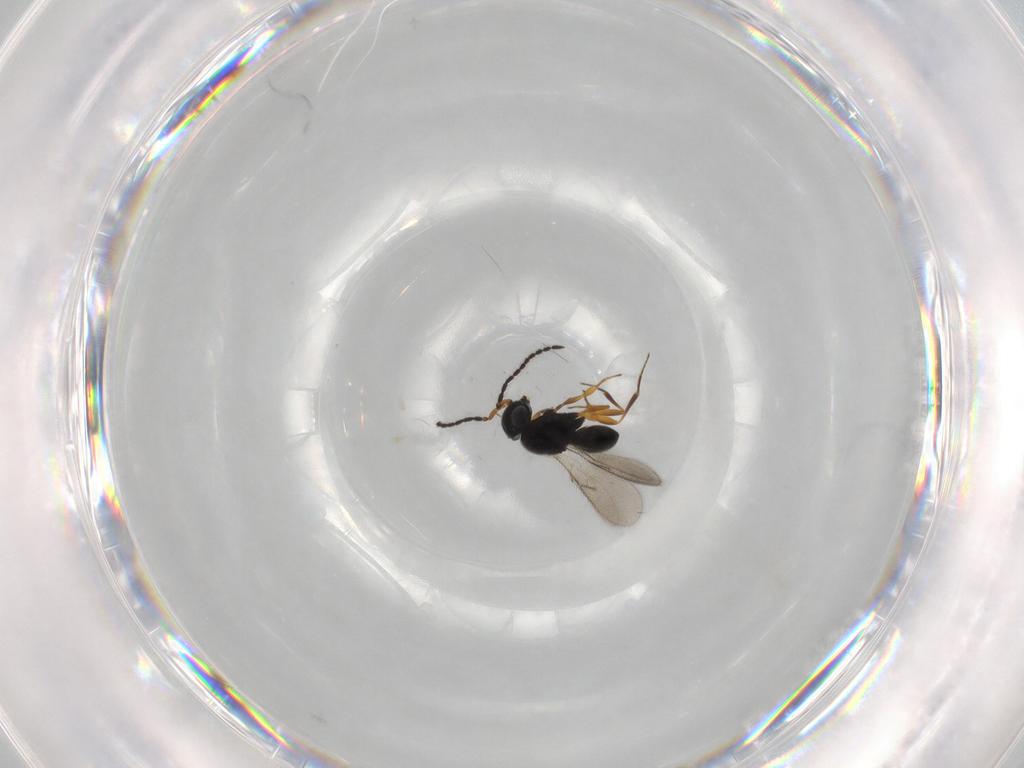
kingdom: Animalia
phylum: Arthropoda
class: Insecta
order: Hymenoptera
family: Scelionidae
